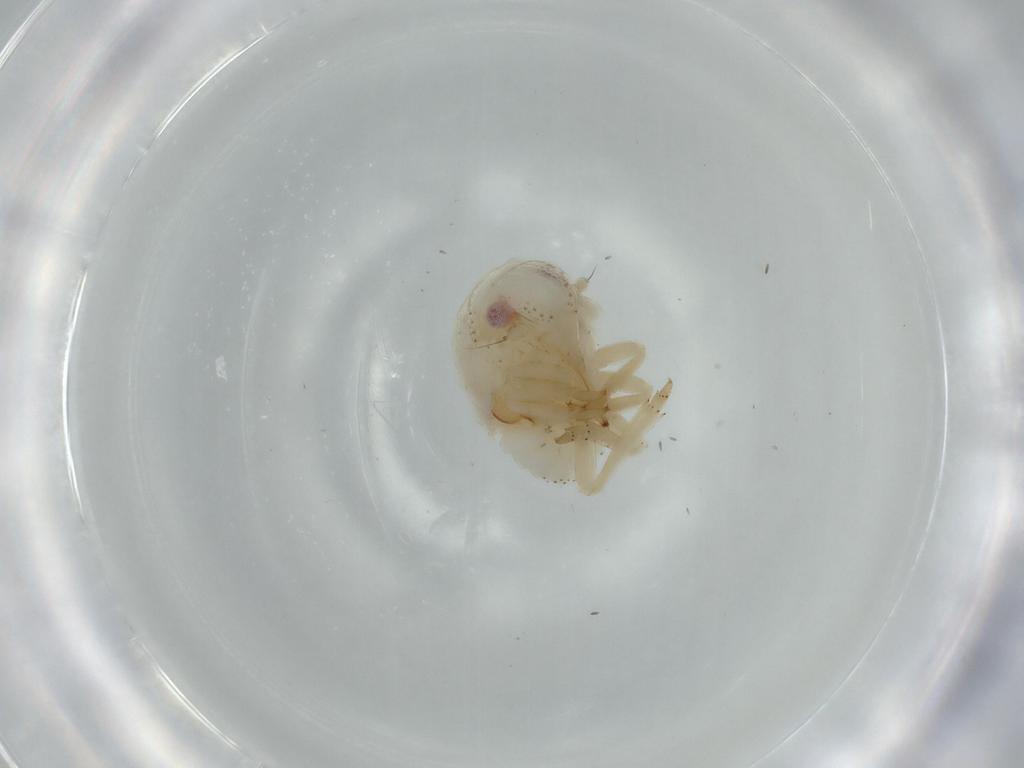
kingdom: Animalia
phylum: Arthropoda
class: Insecta
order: Hemiptera
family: Acanaloniidae
